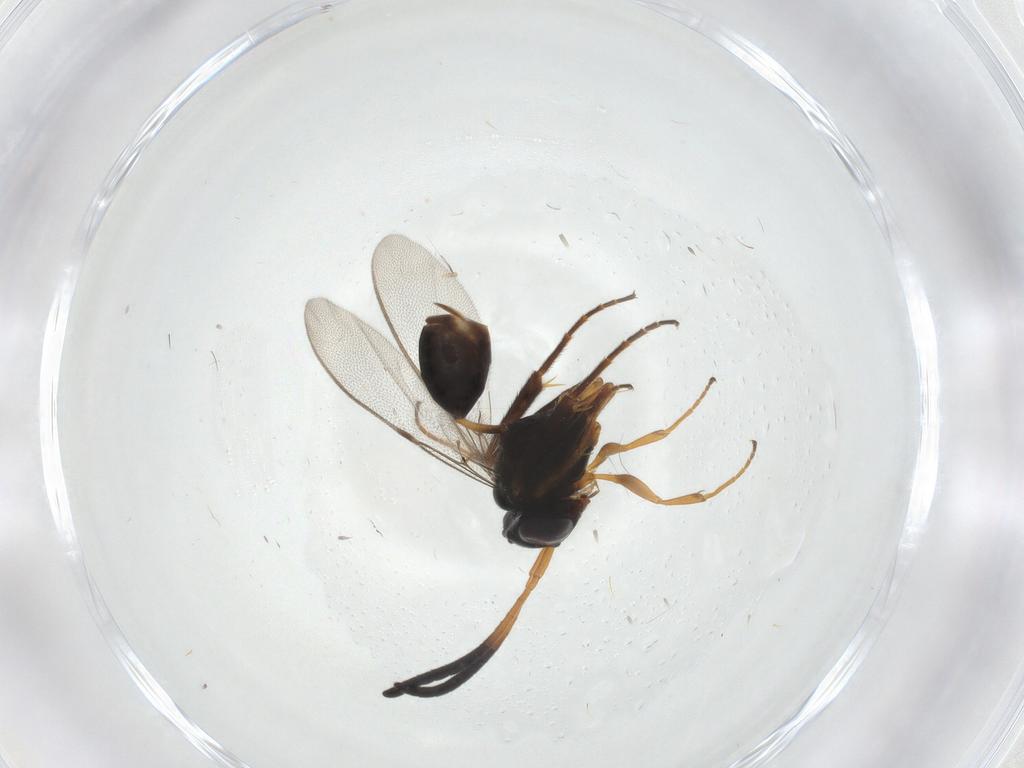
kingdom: Animalia
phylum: Arthropoda
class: Insecta
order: Hymenoptera
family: Evaniidae
